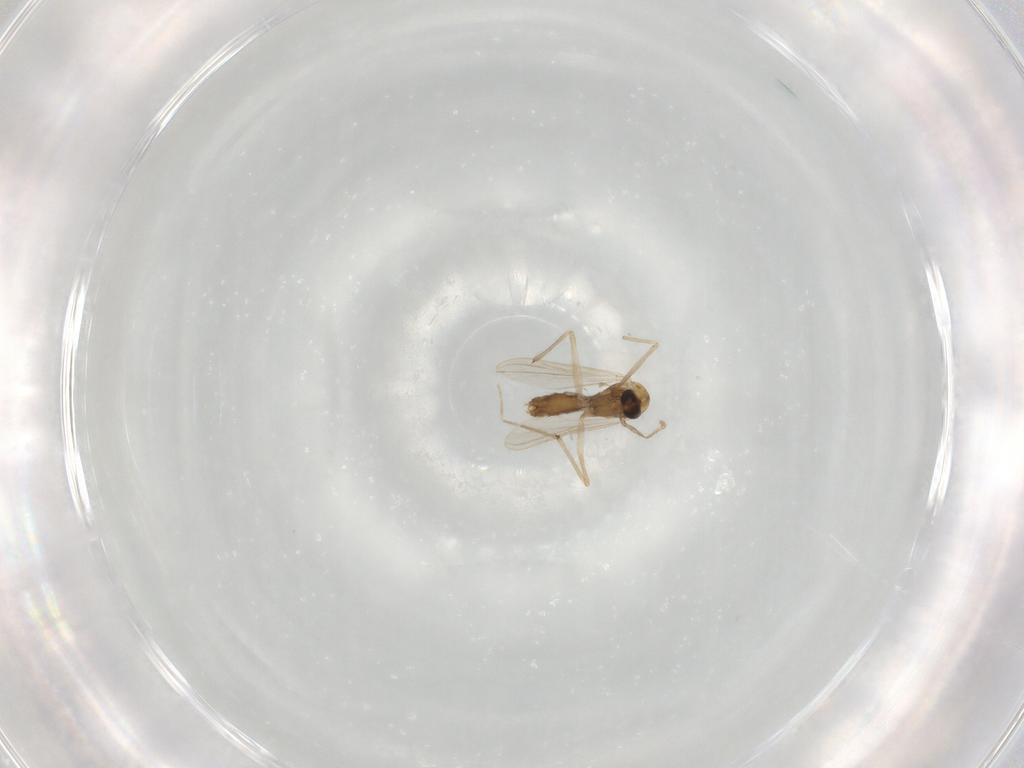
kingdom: Animalia
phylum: Arthropoda
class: Insecta
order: Diptera
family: Chironomidae
